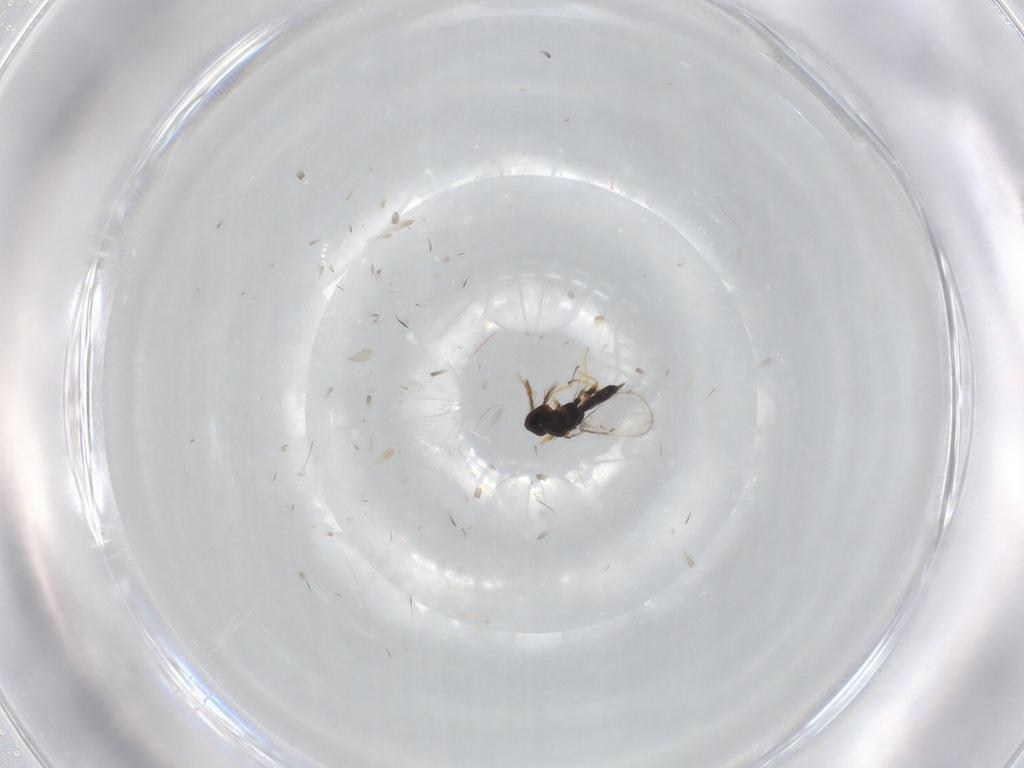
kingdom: Animalia
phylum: Arthropoda
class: Insecta
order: Hymenoptera
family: Eulophidae
